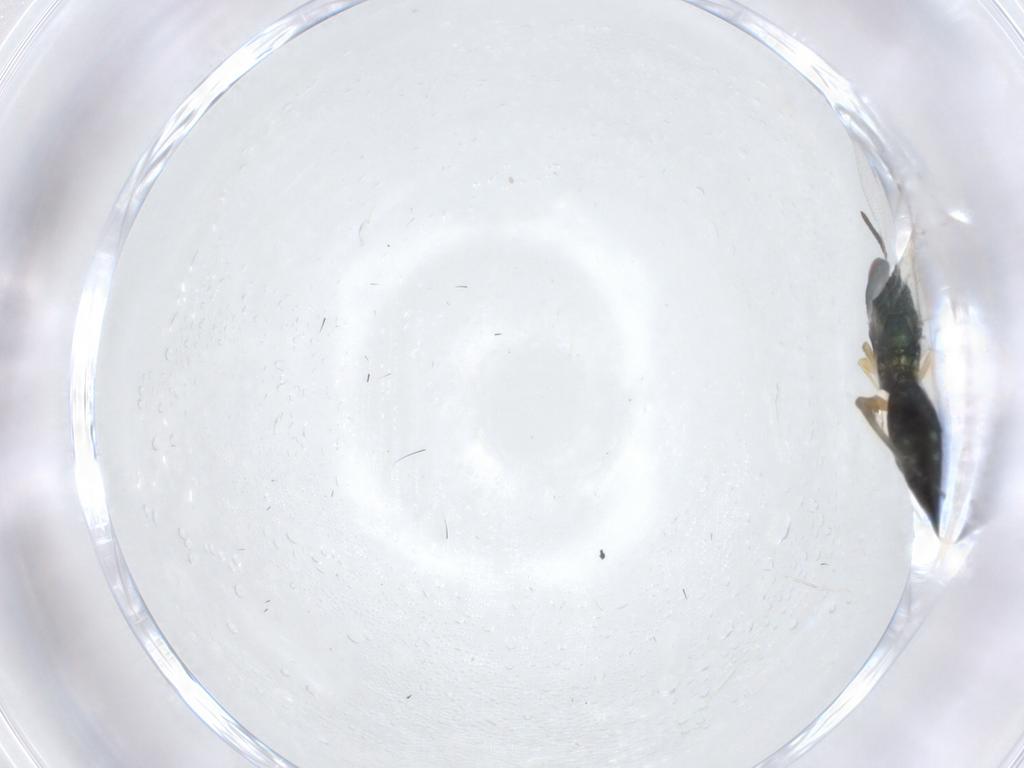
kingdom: Animalia
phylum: Arthropoda
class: Insecta
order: Hymenoptera
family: Pteromalidae
